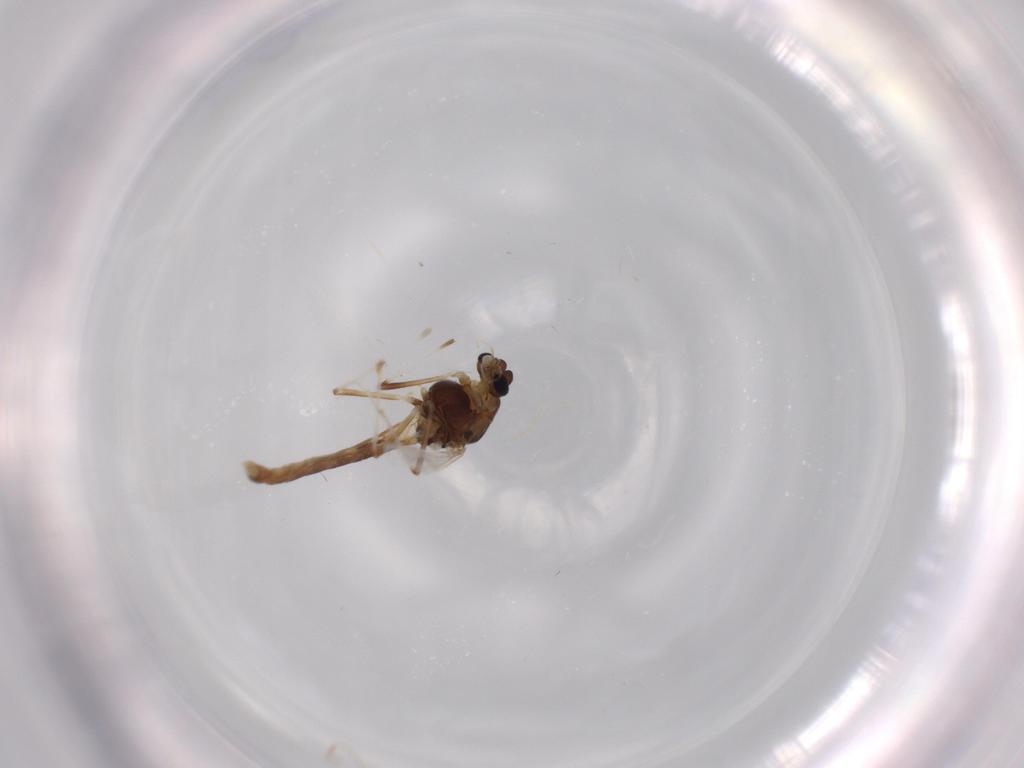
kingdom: Animalia
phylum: Arthropoda
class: Insecta
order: Diptera
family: Chironomidae
